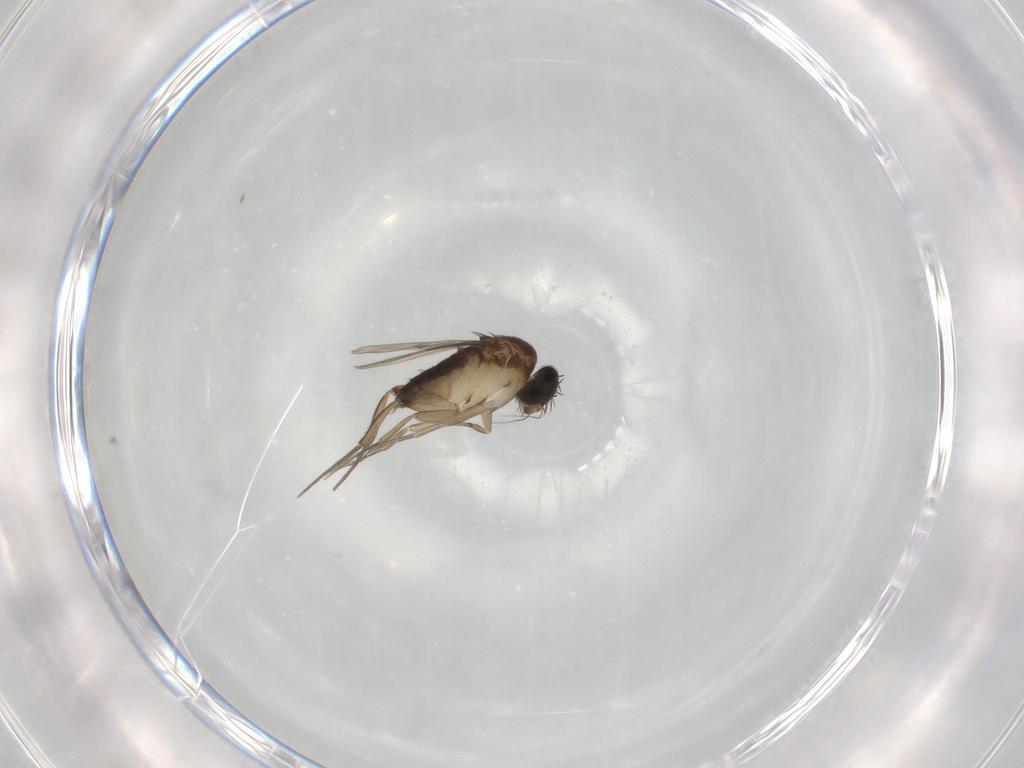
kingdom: Animalia
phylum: Arthropoda
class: Insecta
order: Diptera
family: Phoridae
